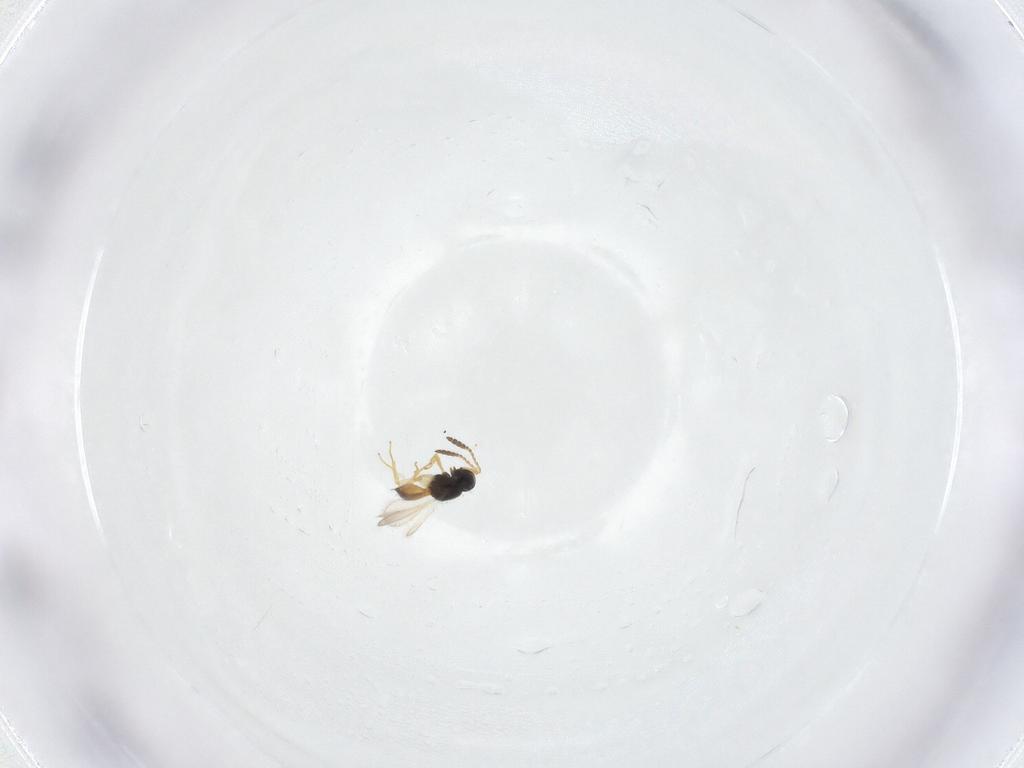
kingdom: Animalia
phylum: Arthropoda
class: Insecta
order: Hymenoptera
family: Scelionidae
